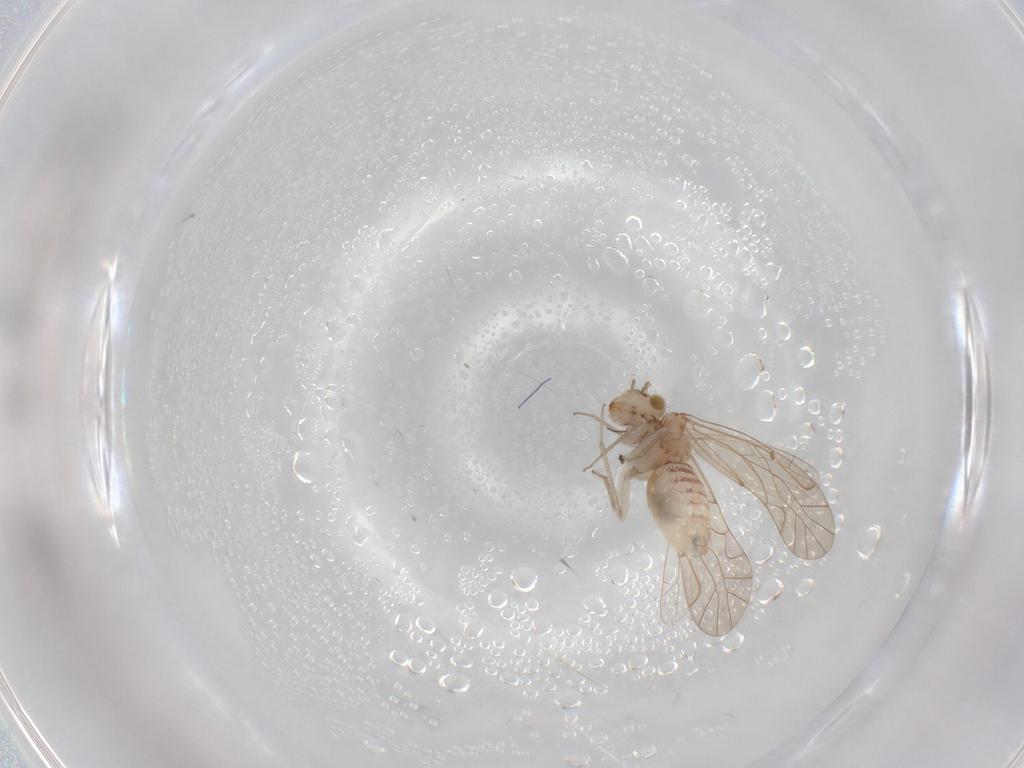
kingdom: Animalia
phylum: Arthropoda
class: Insecta
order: Psocodea
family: Lachesillidae
